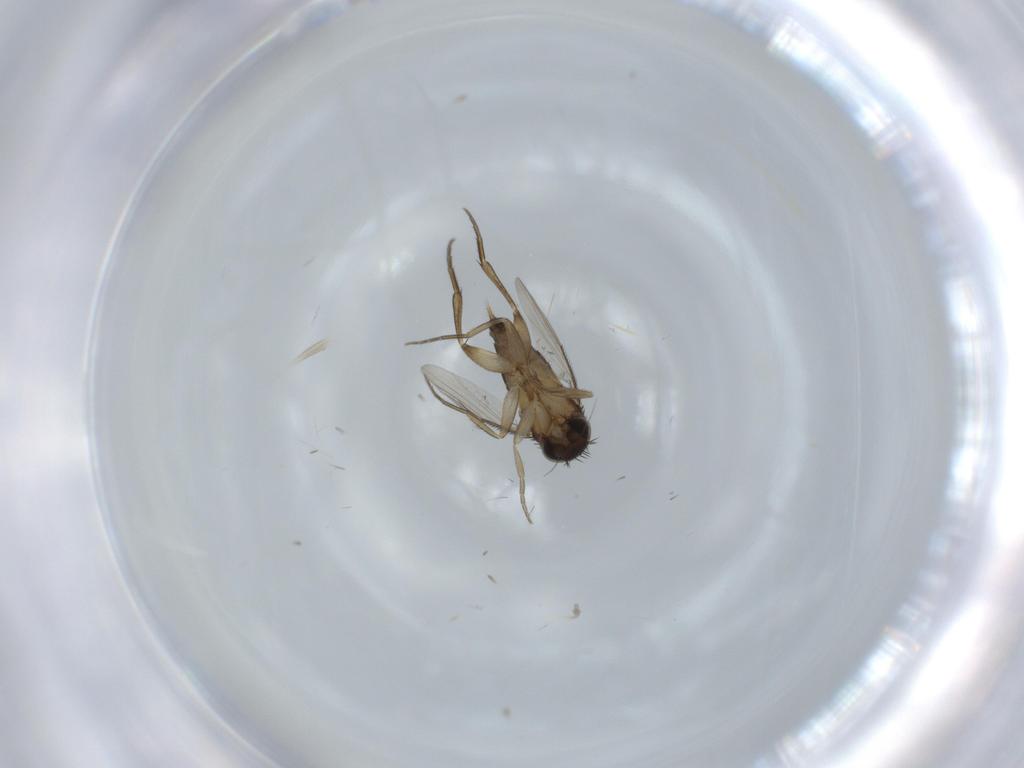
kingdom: Animalia
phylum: Arthropoda
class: Insecta
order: Diptera
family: Phoridae
